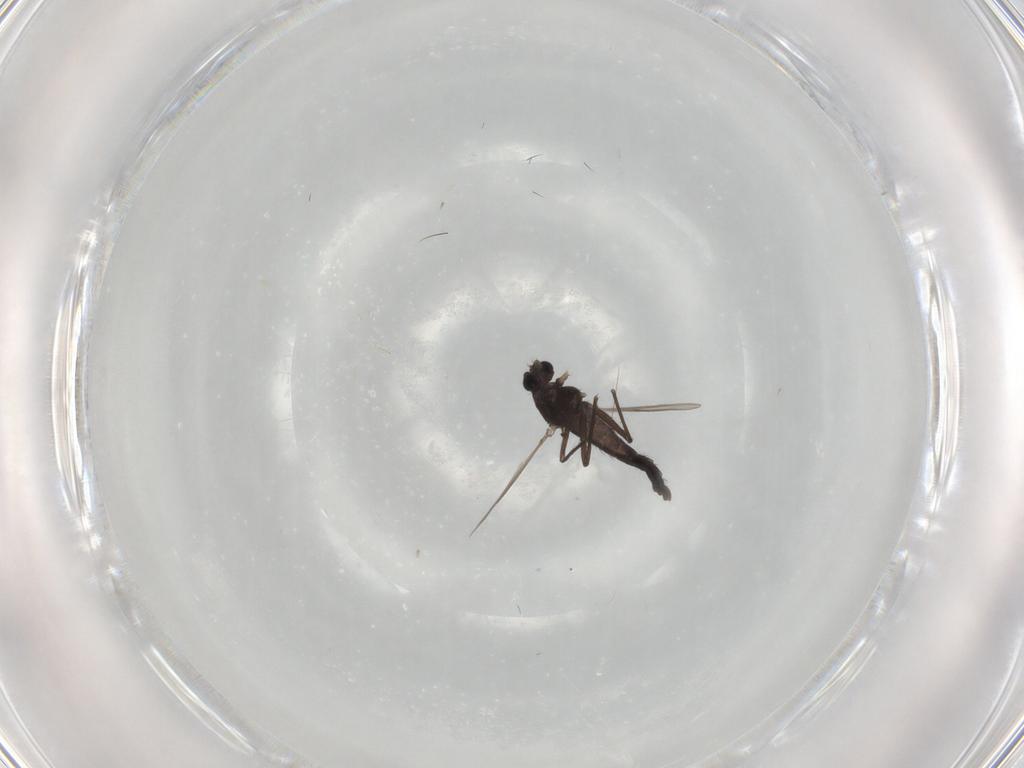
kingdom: Animalia
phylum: Arthropoda
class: Insecta
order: Diptera
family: Chironomidae
